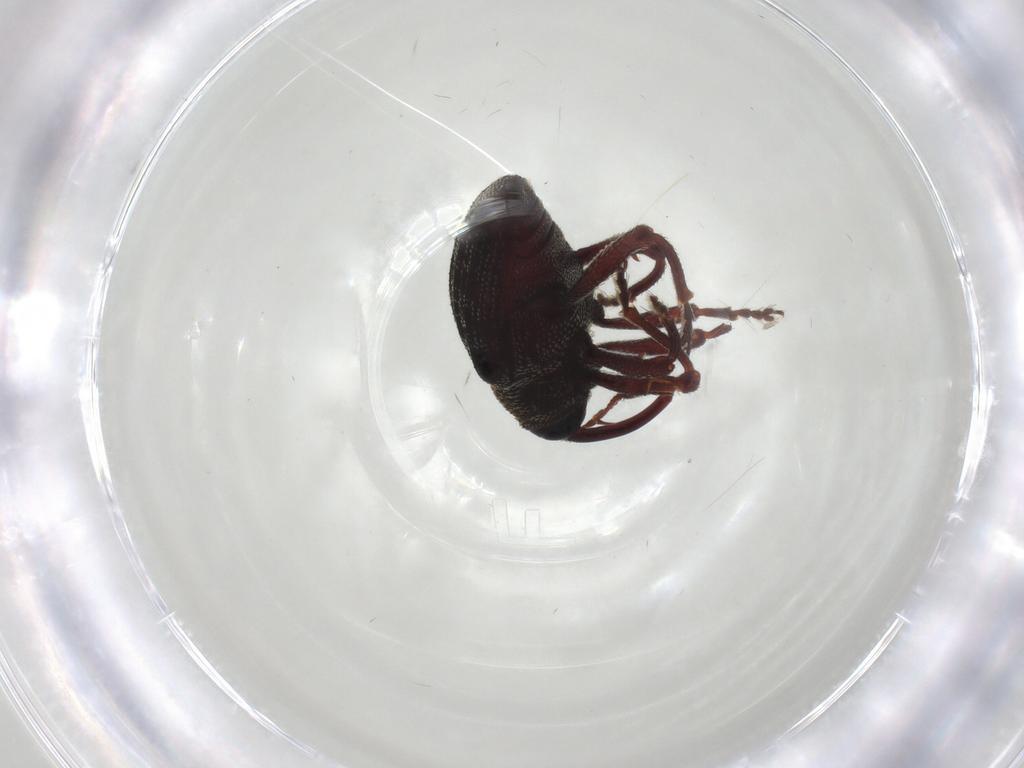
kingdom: Animalia
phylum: Arthropoda
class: Insecta
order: Coleoptera
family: Curculionidae
